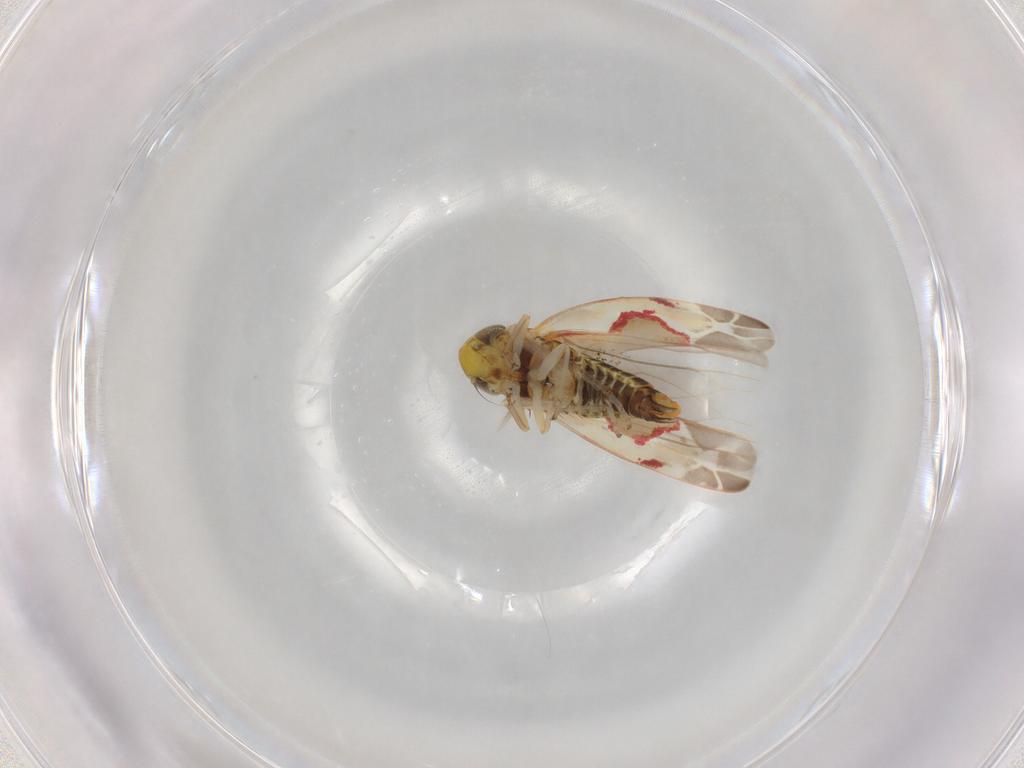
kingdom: Animalia
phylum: Arthropoda
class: Insecta
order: Hemiptera
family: Cicadellidae
